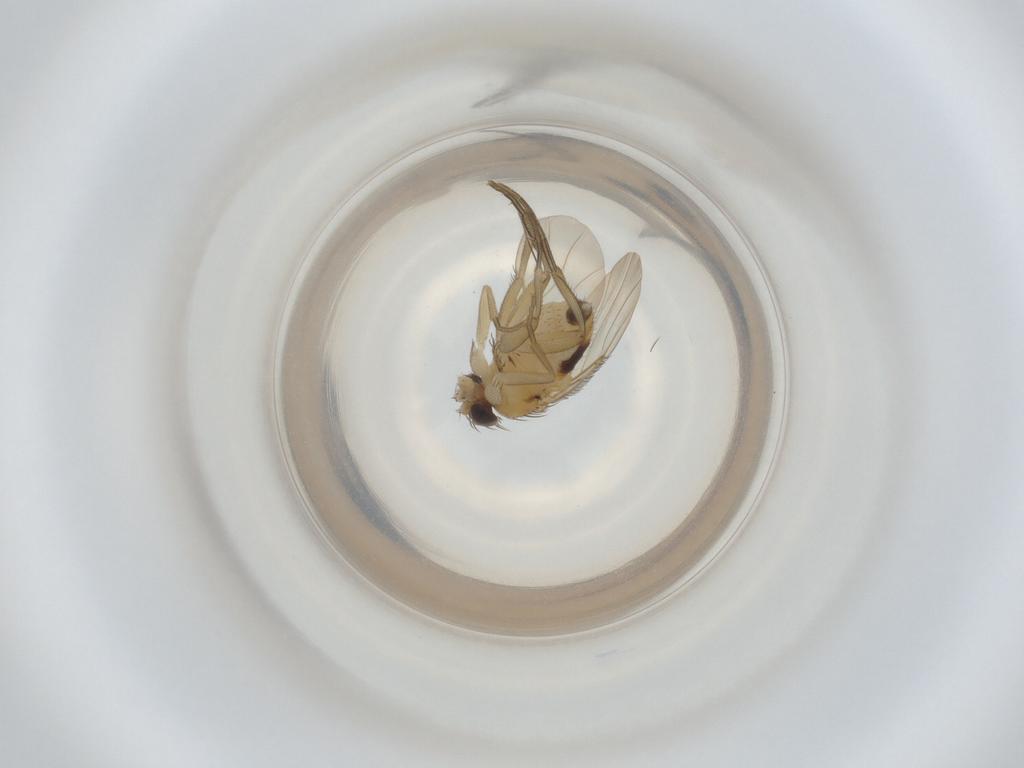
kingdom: Animalia
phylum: Arthropoda
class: Insecta
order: Diptera
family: Phoridae
